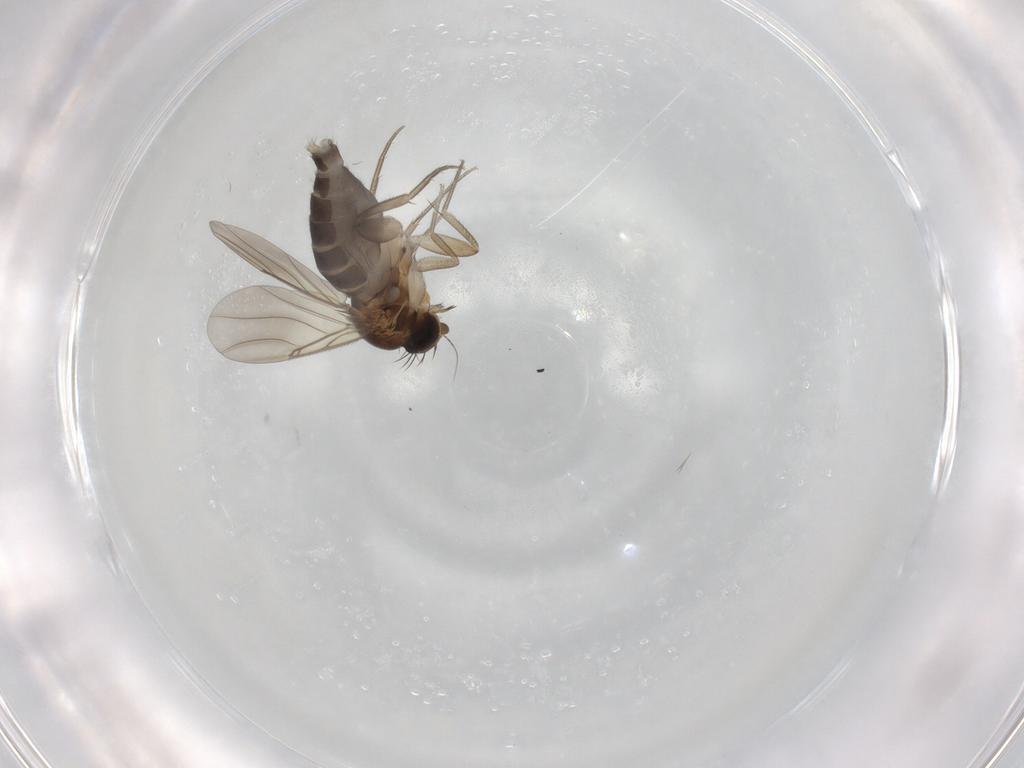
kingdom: Animalia
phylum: Arthropoda
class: Insecta
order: Diptera
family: Phoridae
